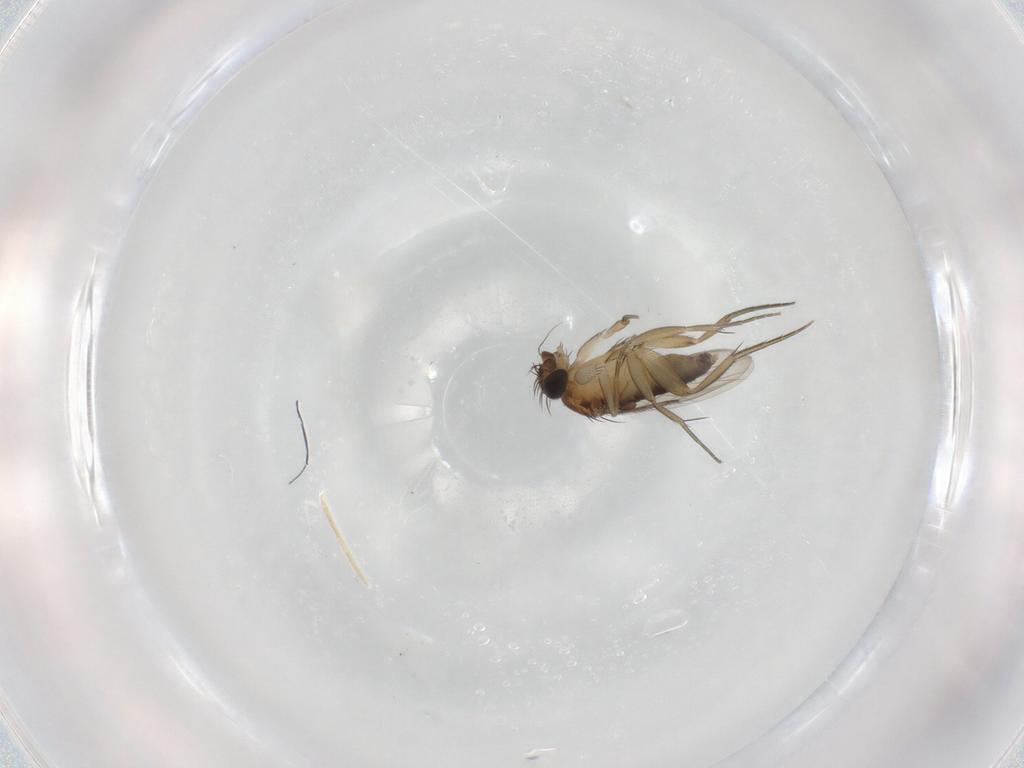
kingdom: Animalia
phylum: Arthropoda
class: Insecta
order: Diptera
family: Phoridae
